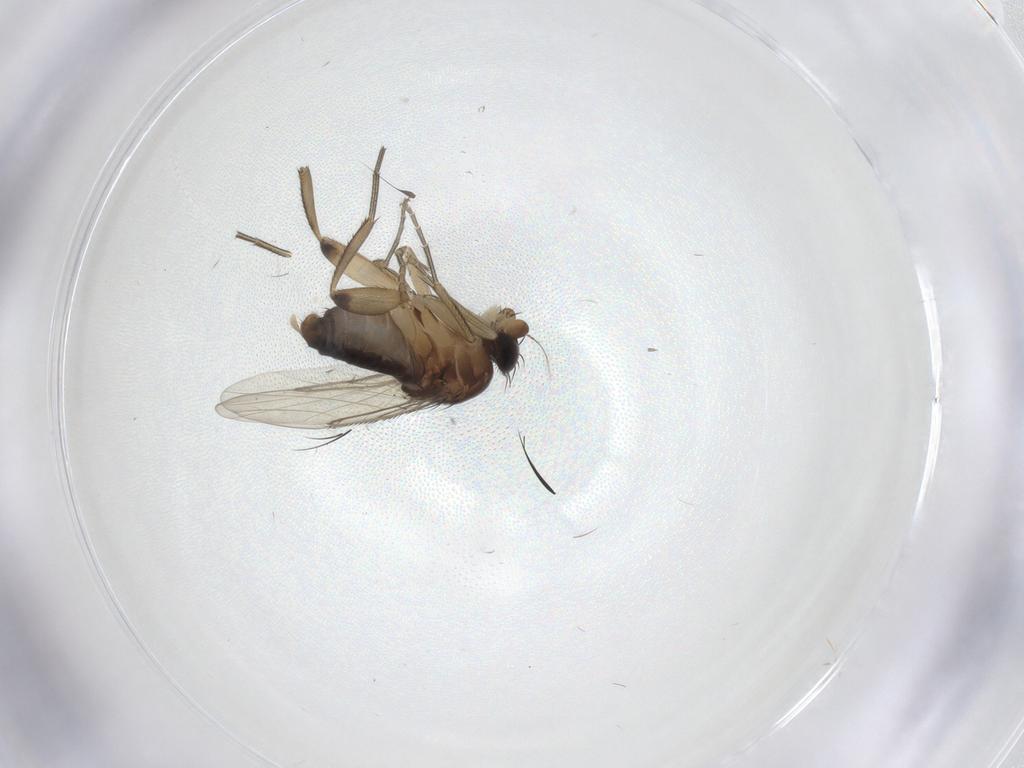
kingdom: Animalia
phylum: Arthropoda
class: Insecta
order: Diptera
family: Phoridae
